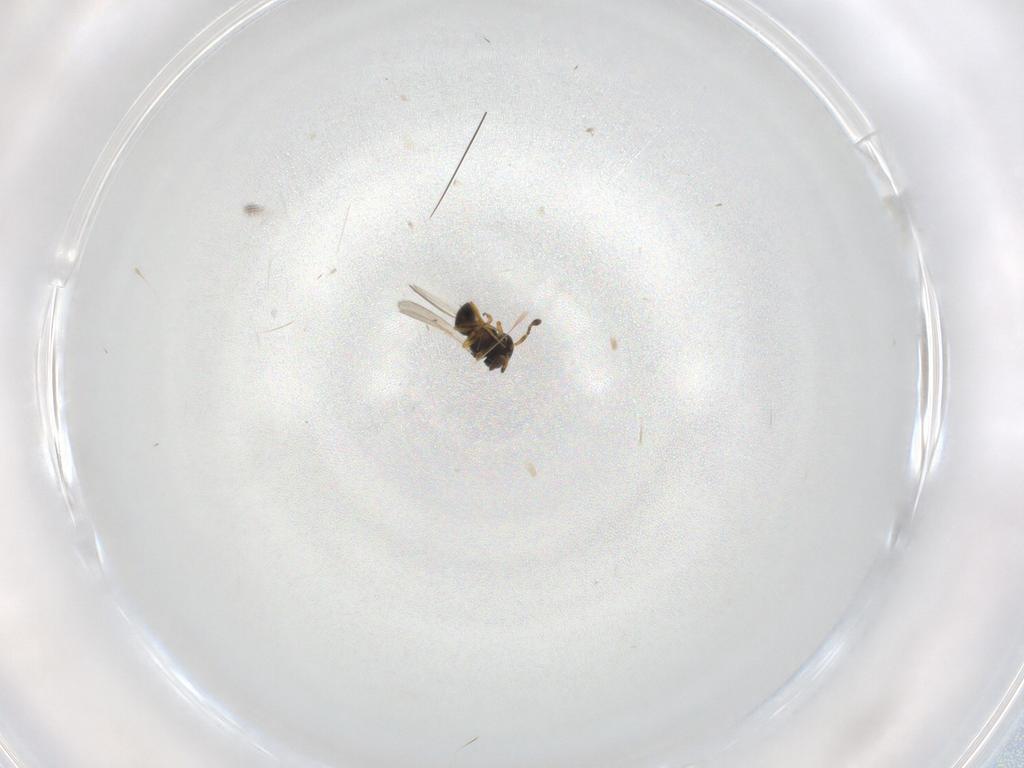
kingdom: Animalia
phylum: Arthropoda
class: Insecta
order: Hymenoptera
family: Scelionidae
